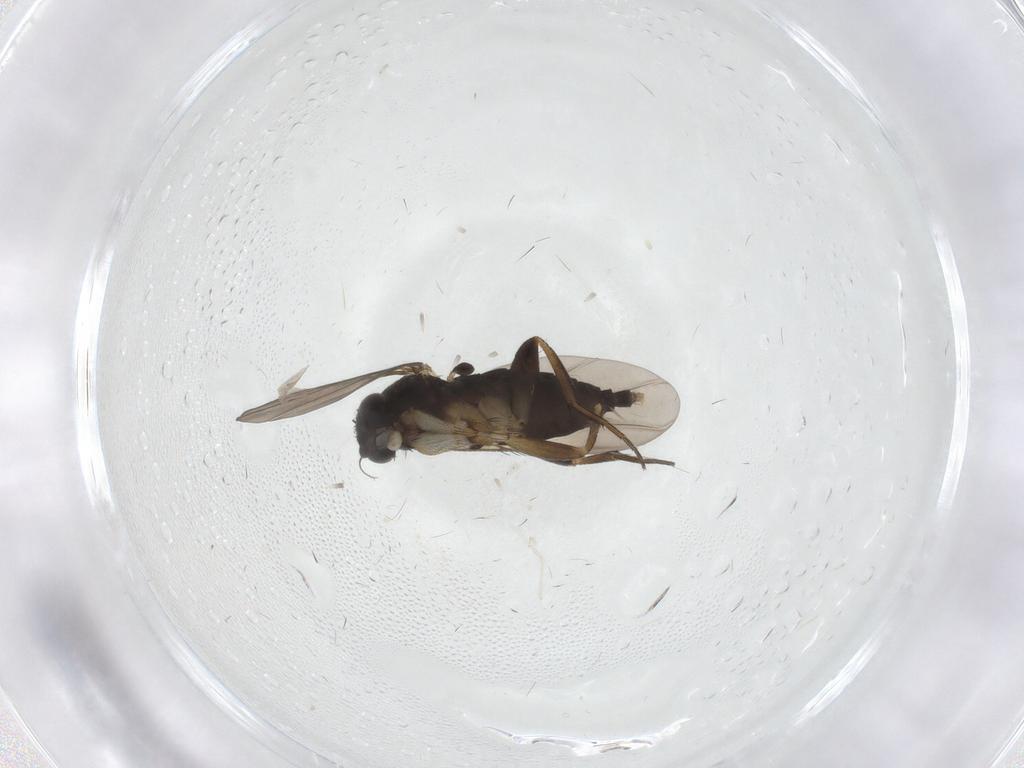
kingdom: Animalia
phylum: Arthropoda
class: Insecta
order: Diptera
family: Phoridae
